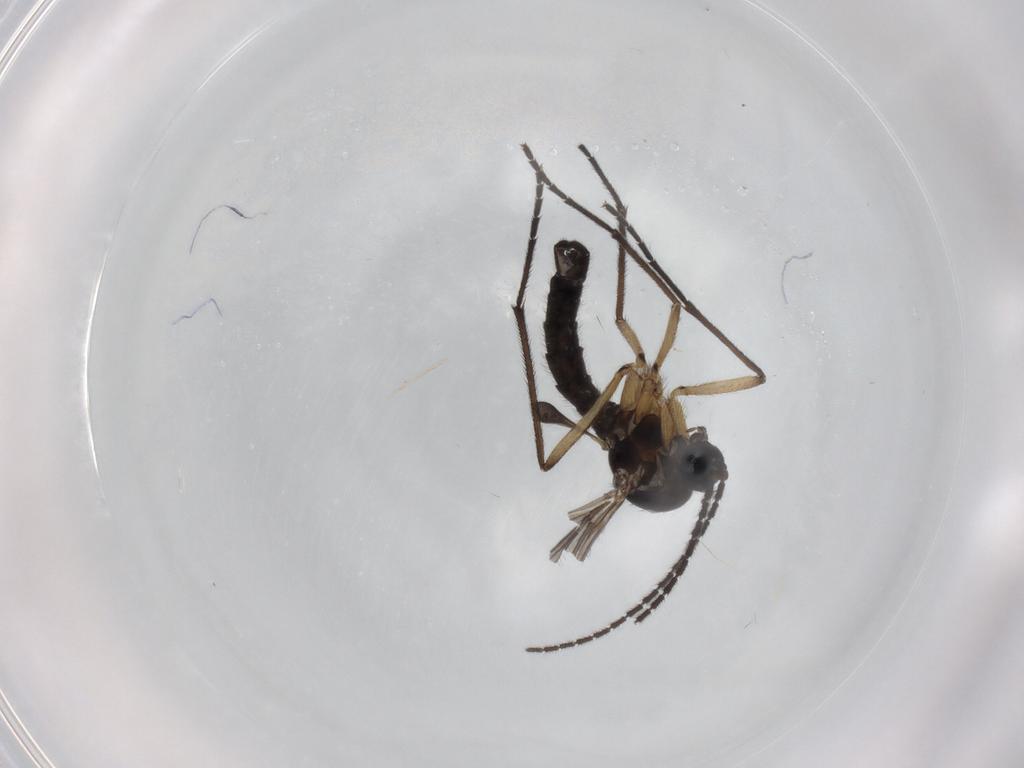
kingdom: Animalia
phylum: Arthropoda
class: Insecta
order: Diptera
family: Sciaridae
